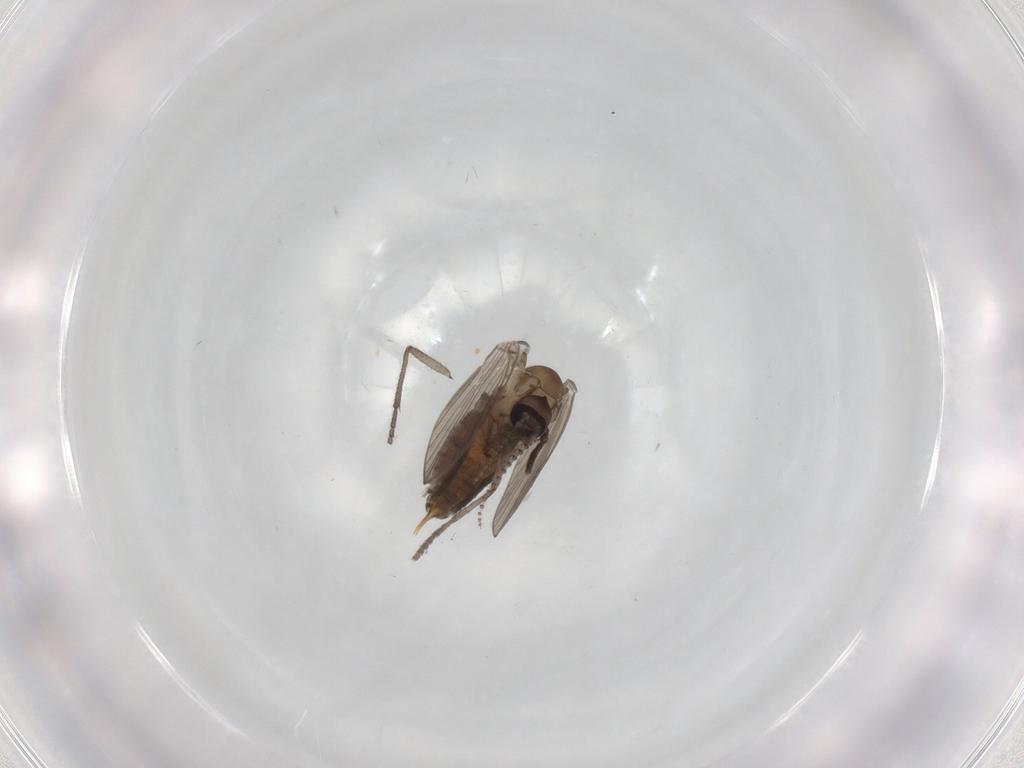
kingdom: Animalia
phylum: Arthropoda
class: Insecta
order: Diptera
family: Psychodidae
